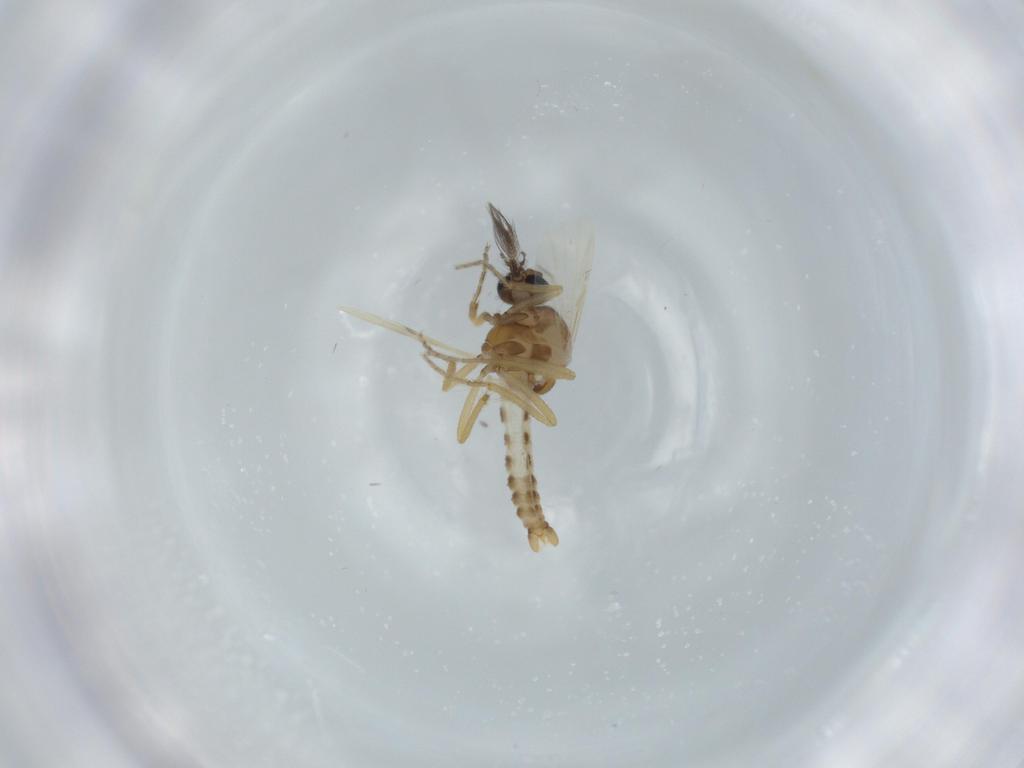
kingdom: Animalia
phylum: Arthropoda
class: Insecta
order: Diptera
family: Ceratopogonidae
